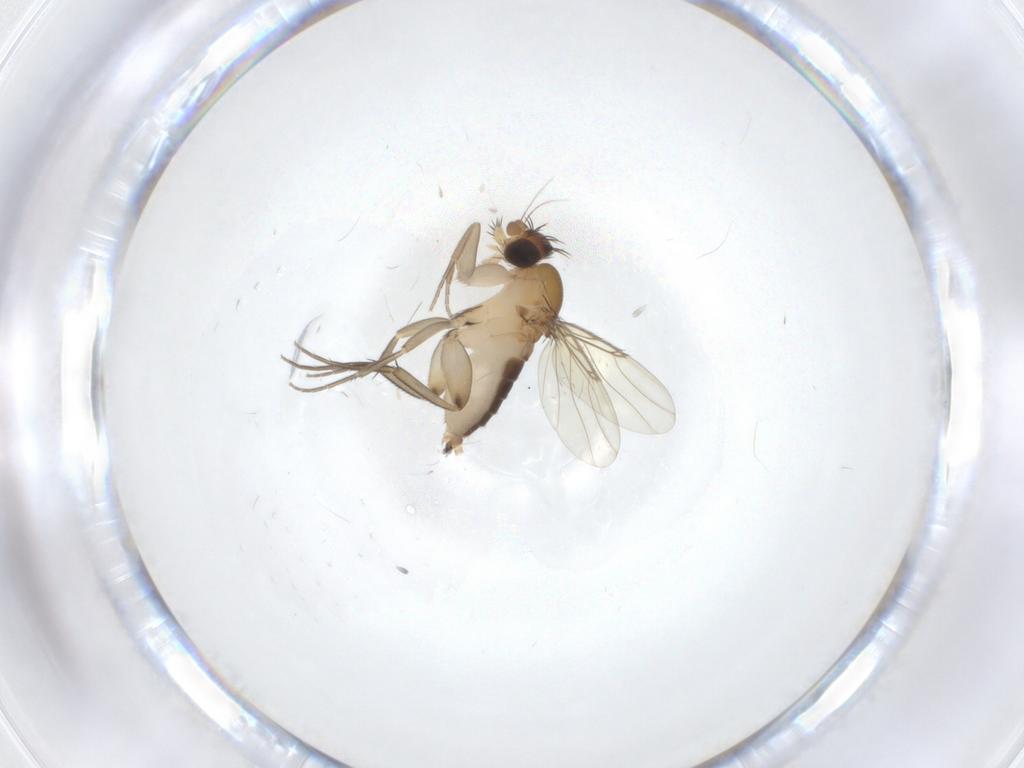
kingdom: Animalia
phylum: Arthropoda
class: Insecta
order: Diptera
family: Phoridae
